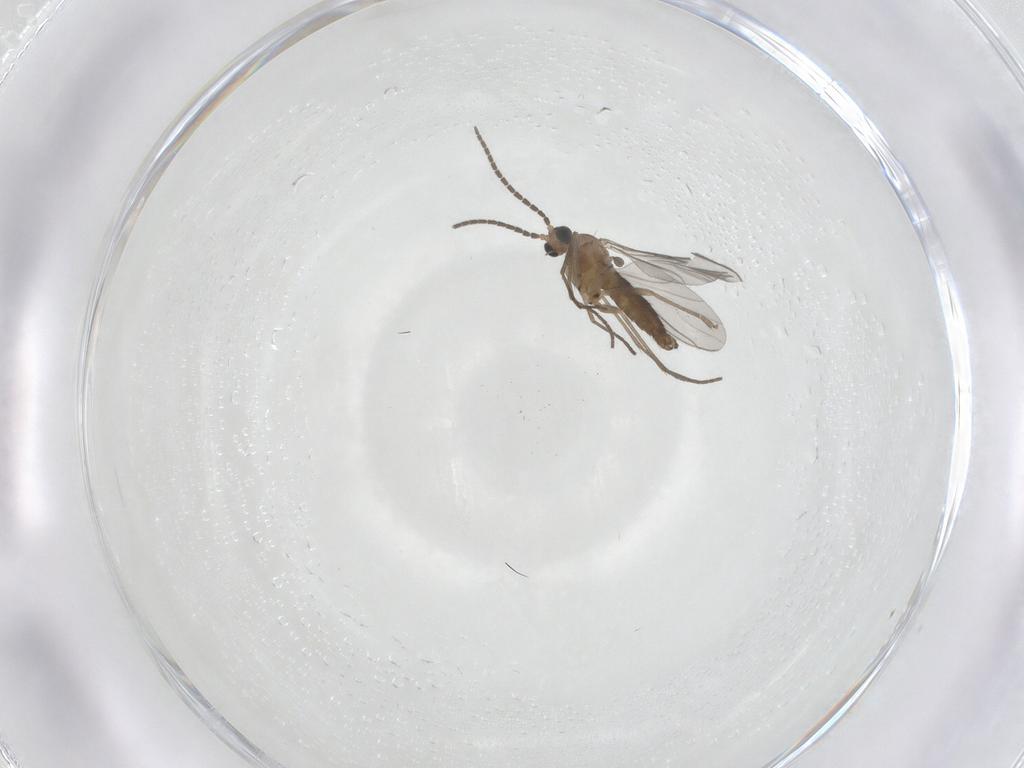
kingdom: Animalia
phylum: Arthropoda
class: Insecta
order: Diptera
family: Sciaridae
